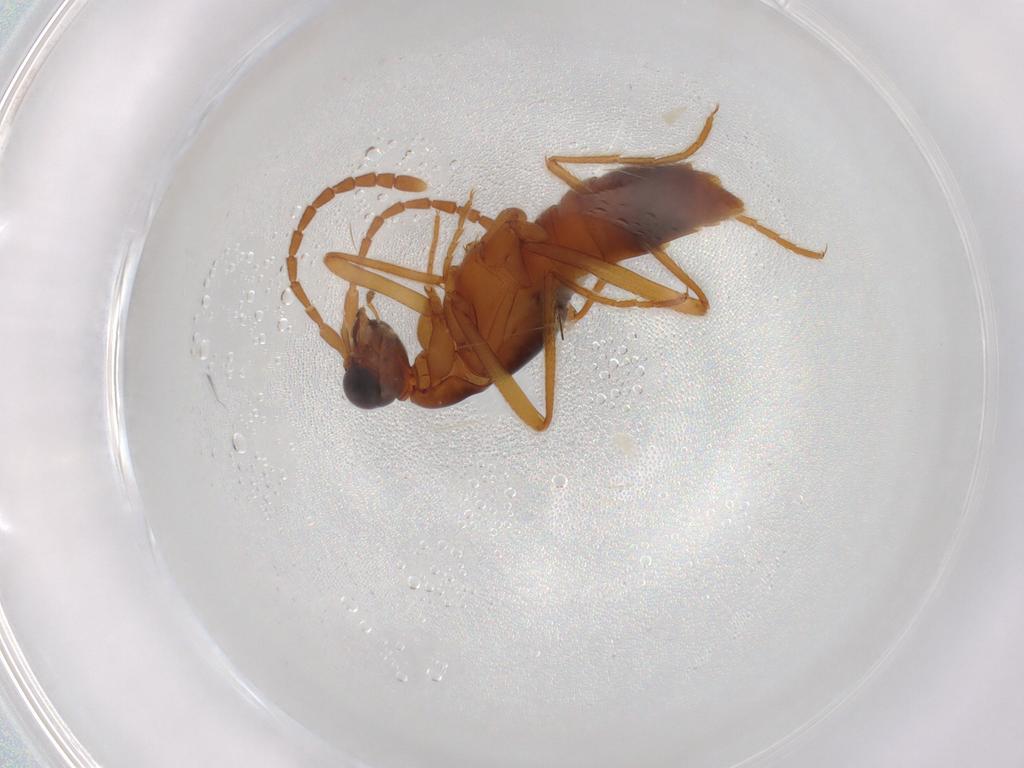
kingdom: Animalia
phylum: Arthropoda
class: Insecta
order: Coleoptera
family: Staphylinidae
